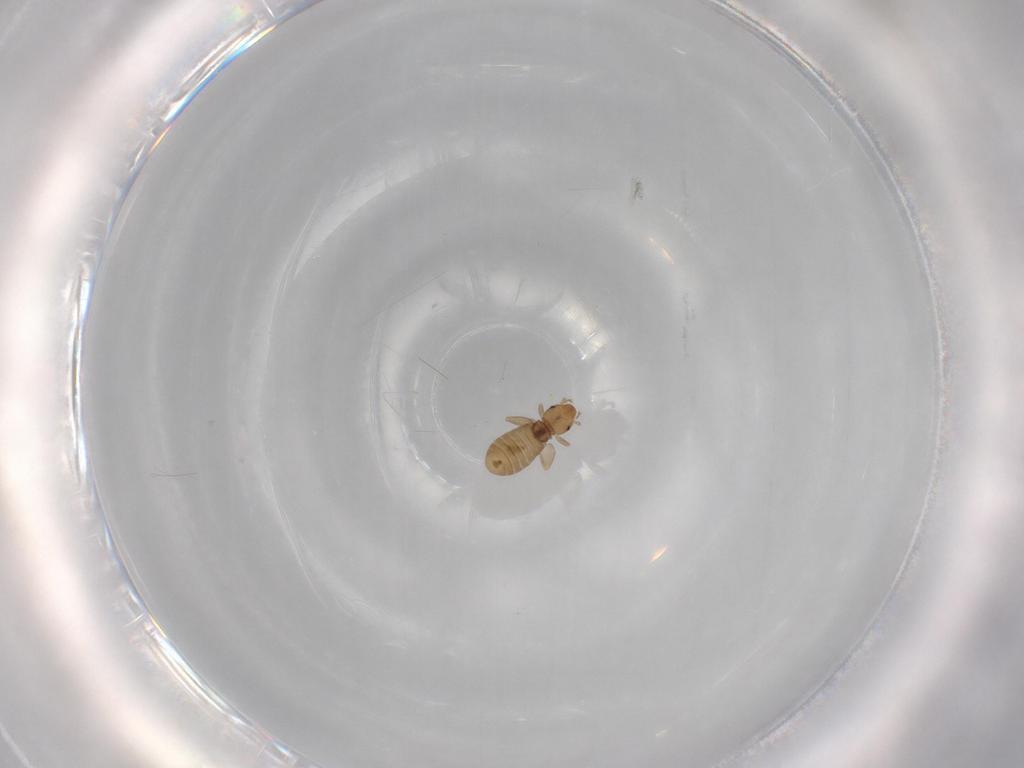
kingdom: Animalia
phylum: Arthropoda
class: Insecta
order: Psocodea
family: Liposcelididae
